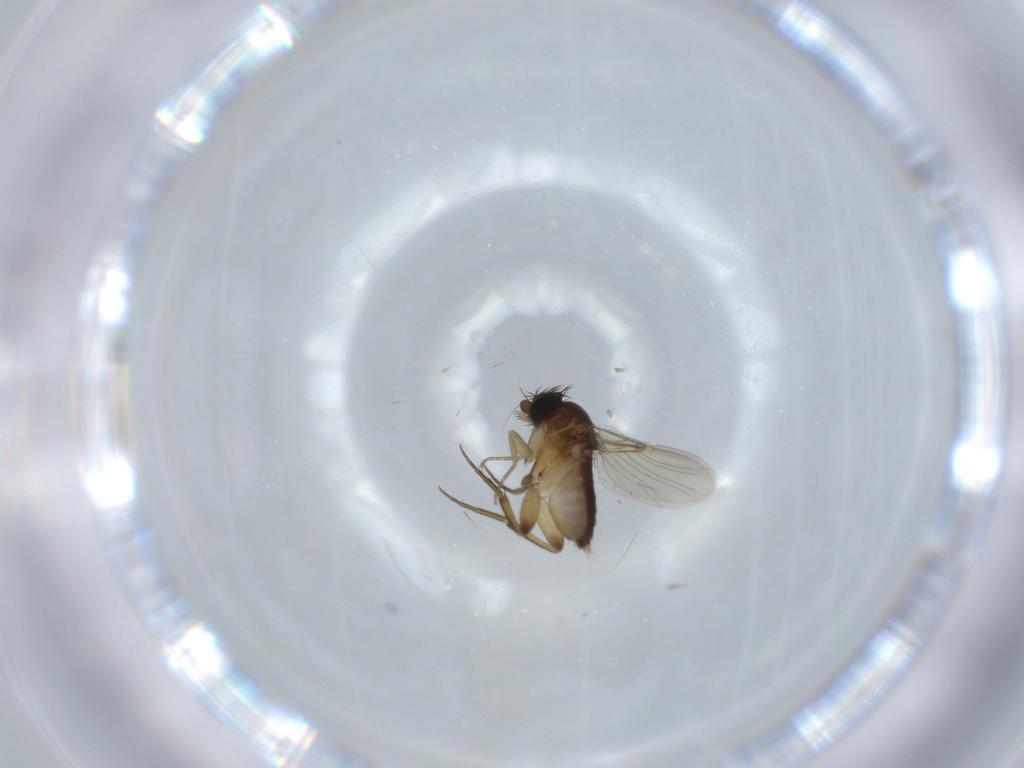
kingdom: Animalia
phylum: Arthropoda
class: Insecta
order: Diptera
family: Phoridae
